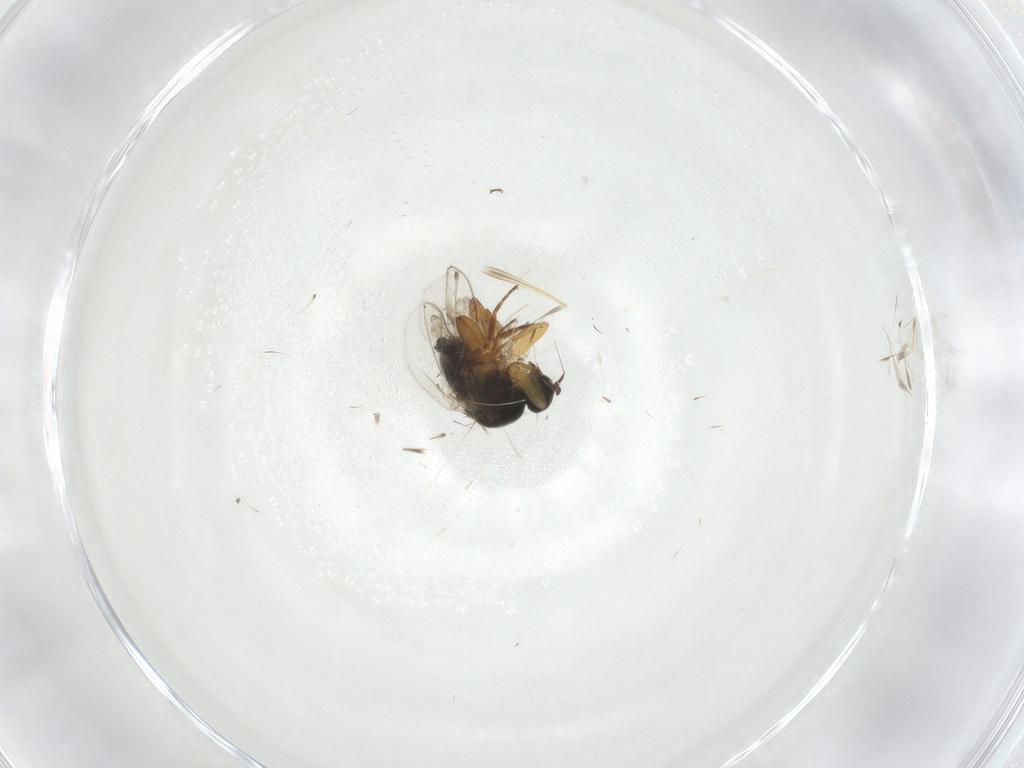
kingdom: Animalia
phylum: Arthropoda
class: Insecta
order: Diptera
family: Hybotidae
